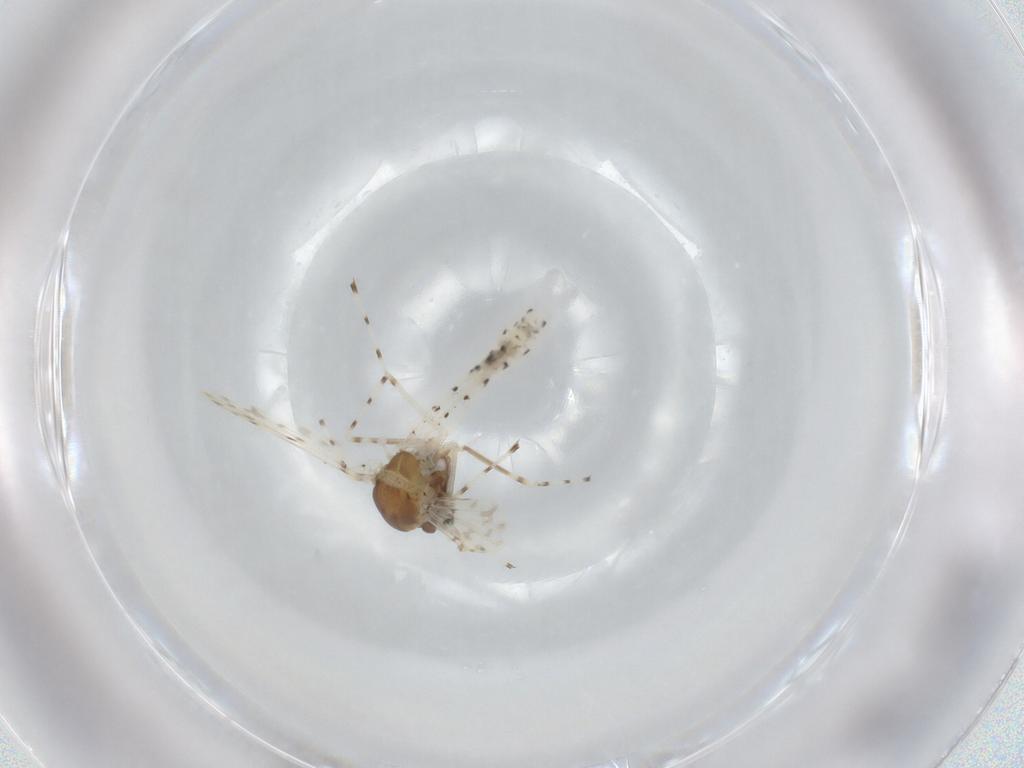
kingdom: Animalia
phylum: Arthropoda
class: Insecta
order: Diptera
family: Chironomidae
